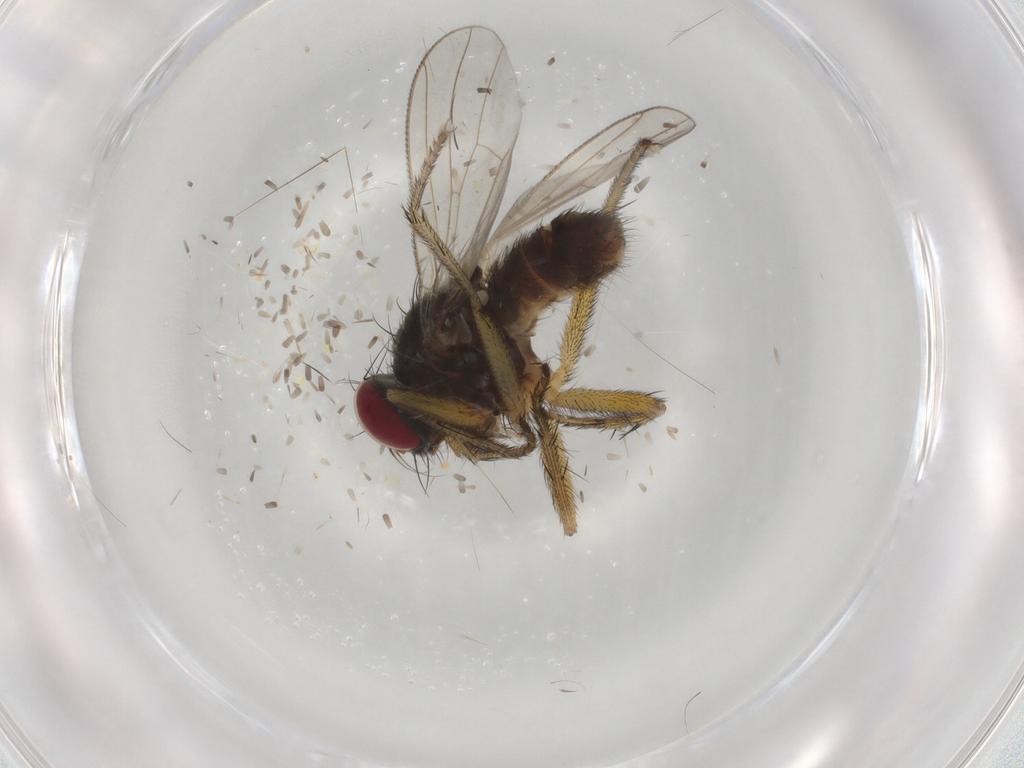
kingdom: Animalia
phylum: Arthropoda
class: Insecta
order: Diptera
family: Muscidae
